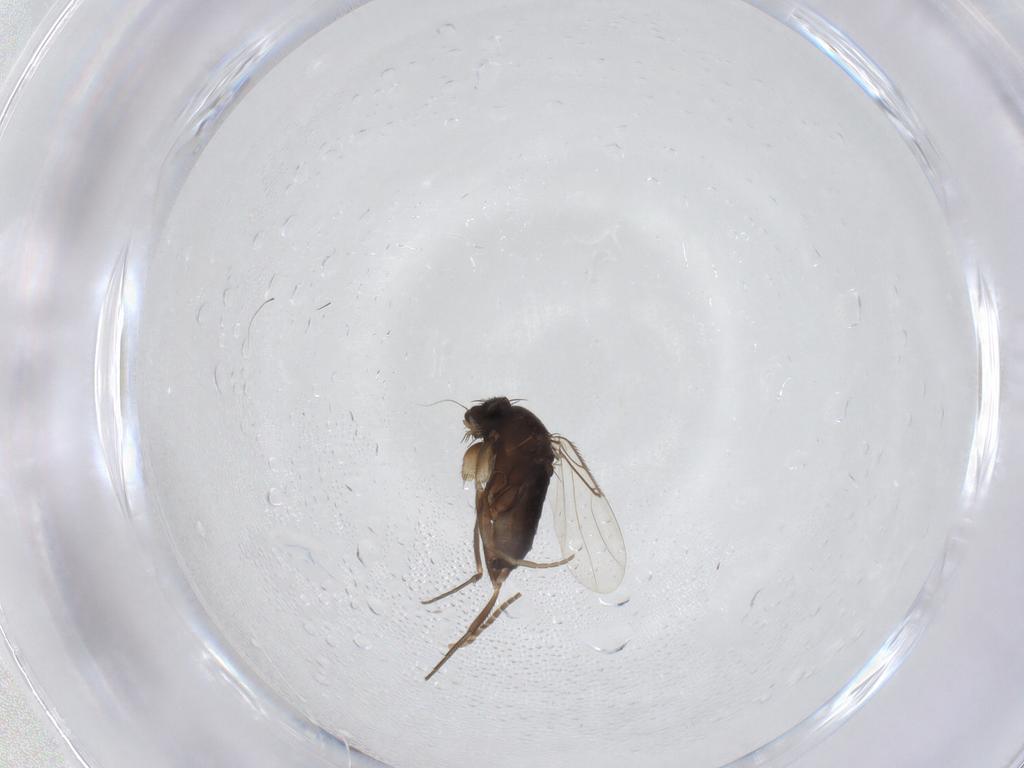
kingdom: Animalia
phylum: Arthropoda
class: Insecta
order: Diptera
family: Phoridae
